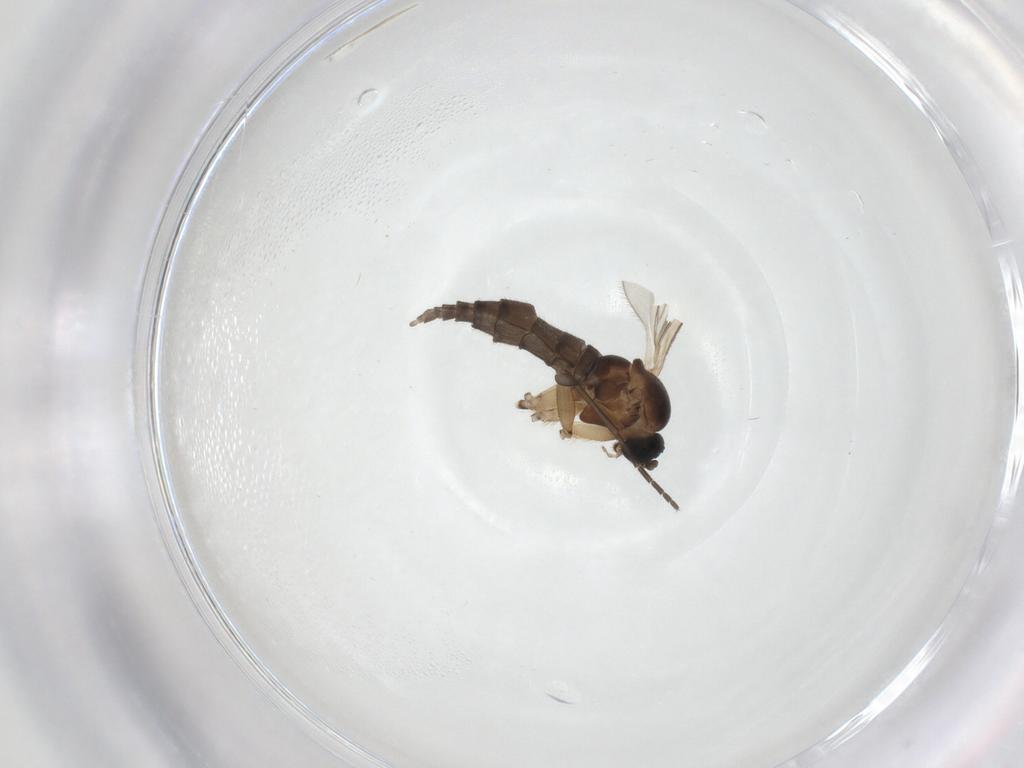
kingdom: Animalia
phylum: Arthropoda
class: Insecta
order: Diptera
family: Sciaridae
